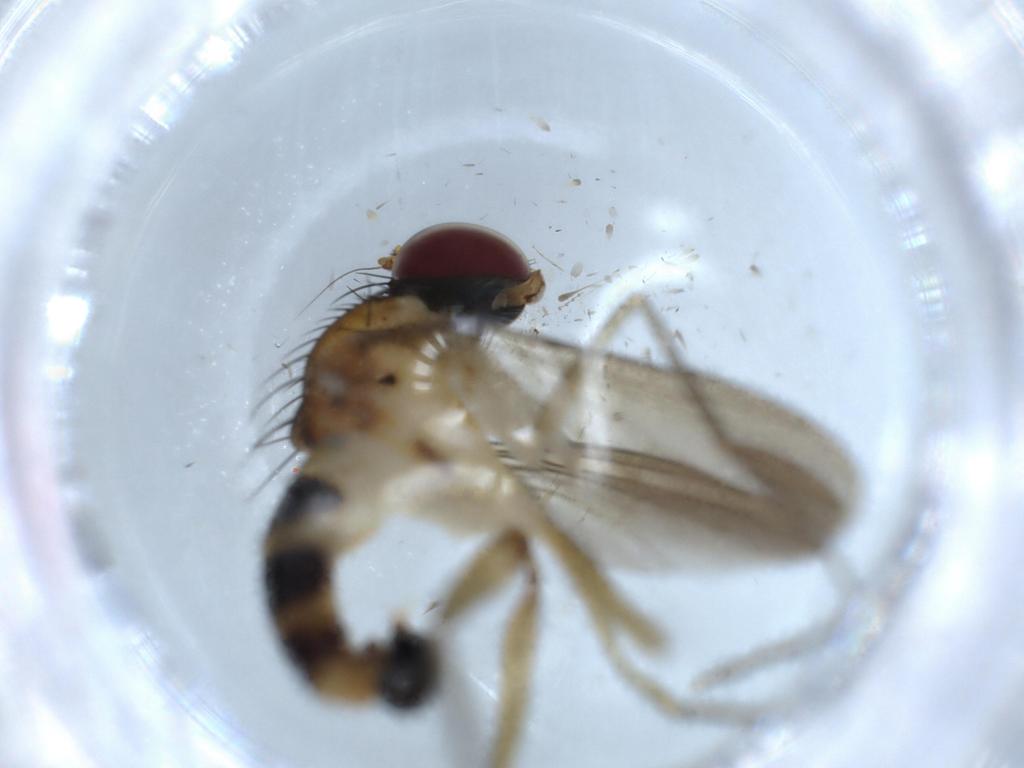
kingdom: Animalia
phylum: Arthropoda
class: Insecta
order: Diptera
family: Dolichopodidae
